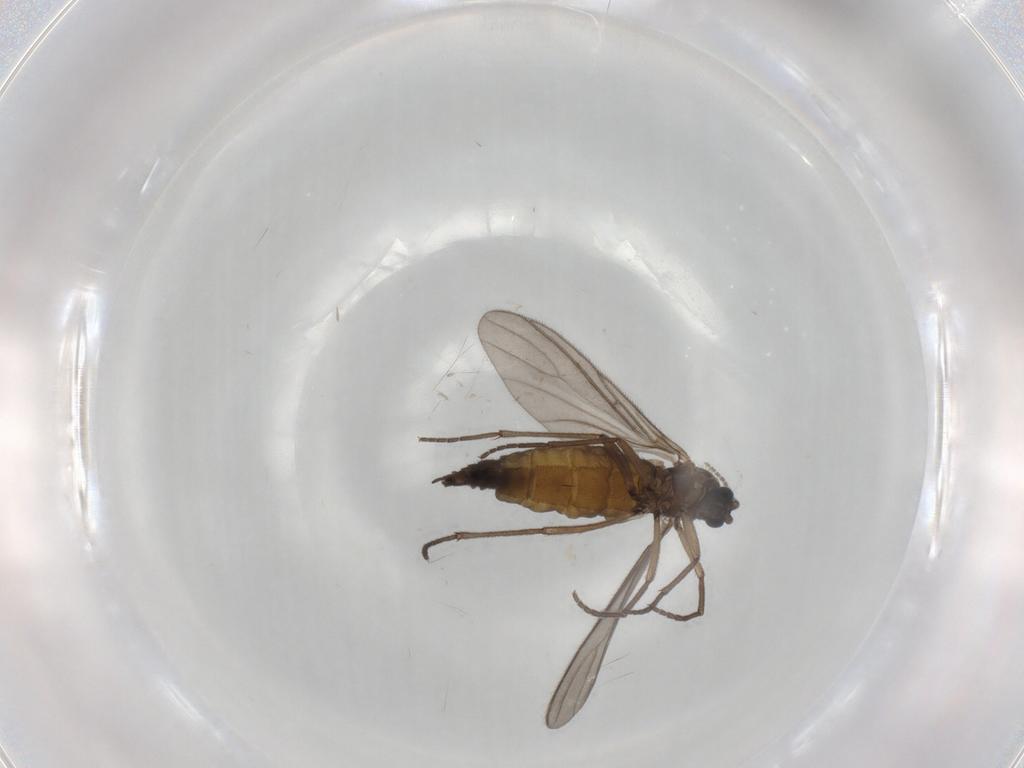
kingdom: Animalia
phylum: Arthropoda
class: Insecta
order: Diptera
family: Sciaridae
